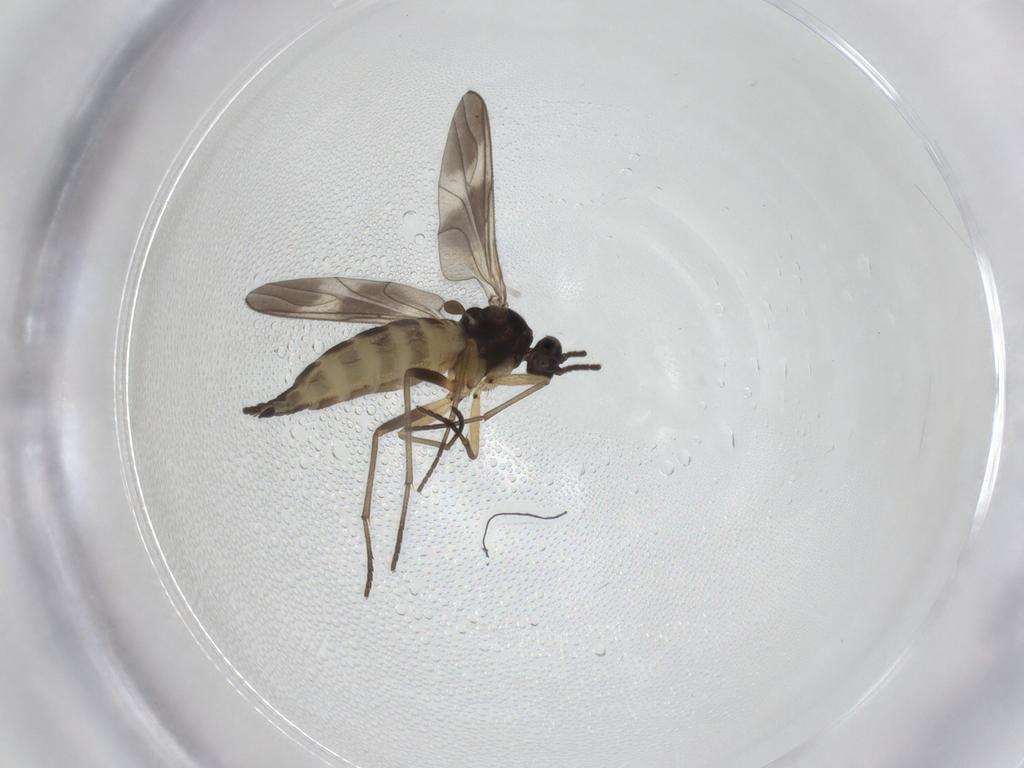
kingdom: Animalia
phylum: Arthropoda
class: Insecta
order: Diptera
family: Sciaridae
